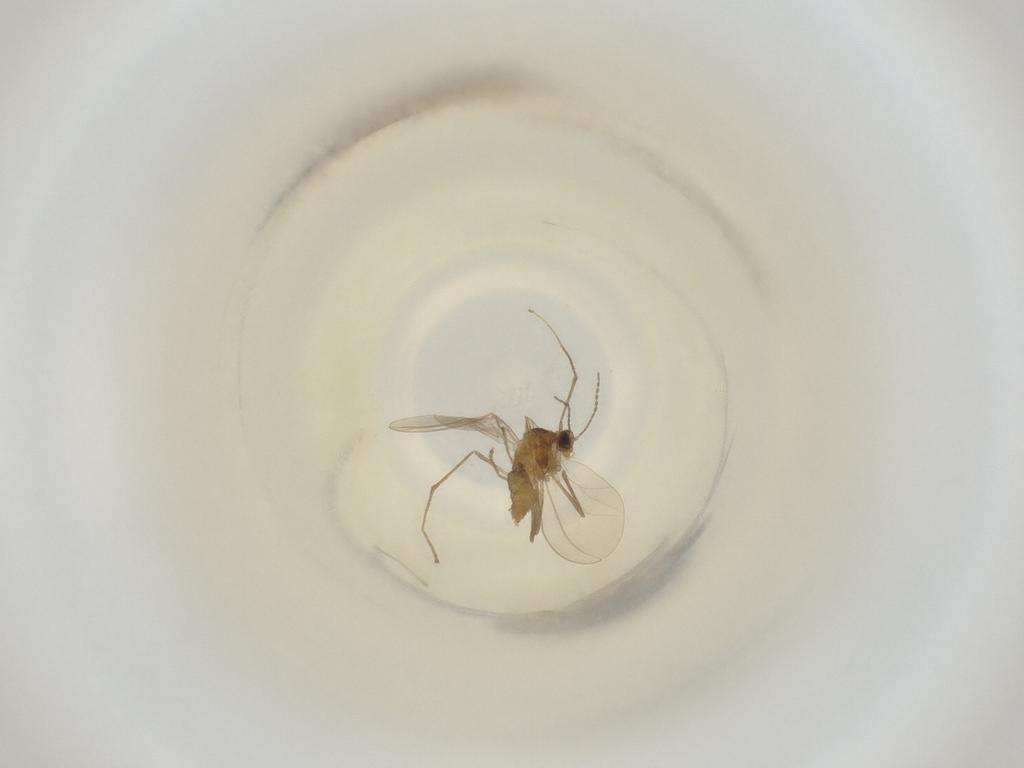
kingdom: Animalia
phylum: Arthropoda
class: Insecta
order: Diptera
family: Cecidomyiidae
